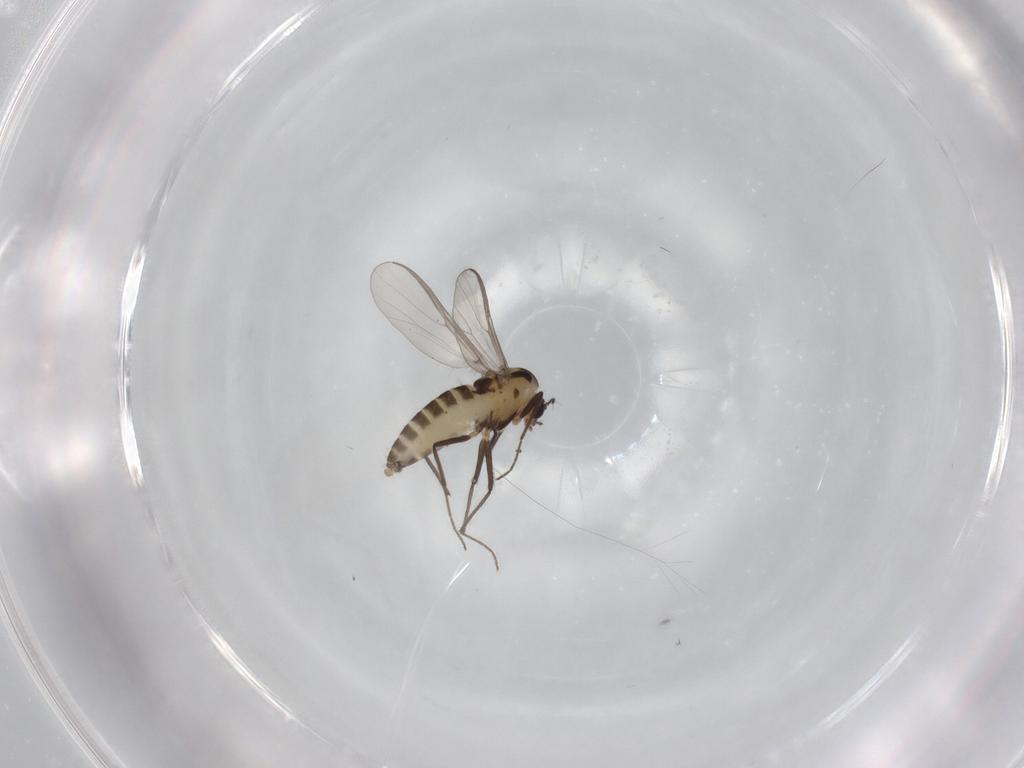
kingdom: Animalia
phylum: Arthropoda
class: Insecta
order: Diptera
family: Chironomidae
